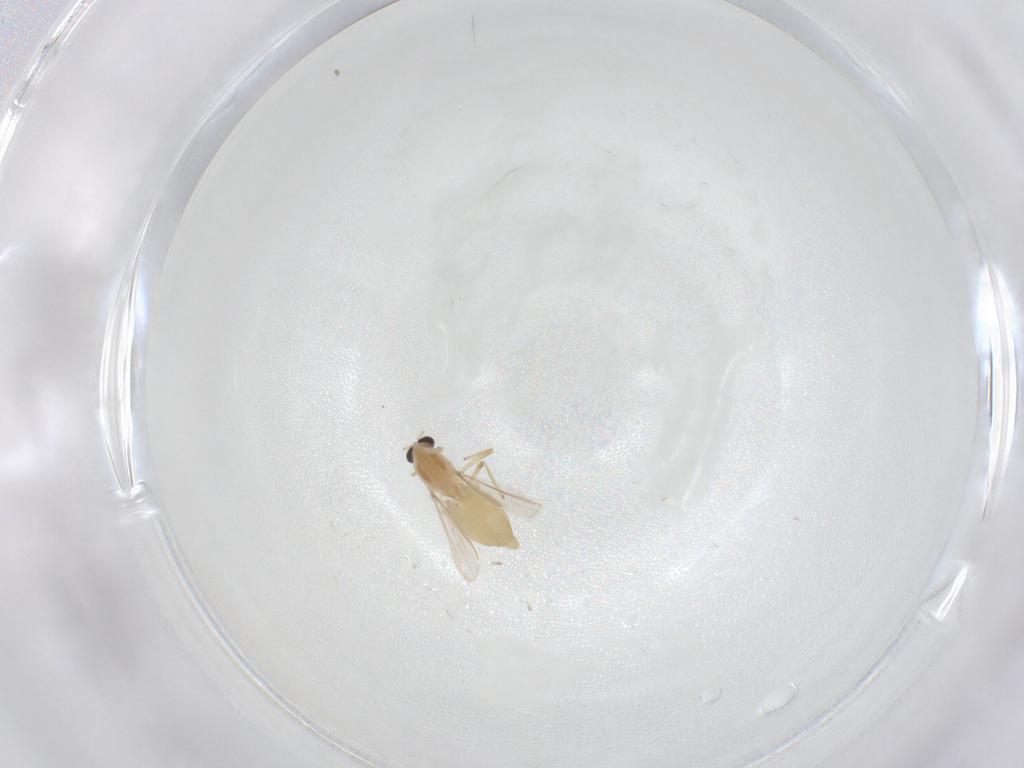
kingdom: Animalia
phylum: Arthropoda
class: Insecta
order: Diptera
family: Chironomidae
